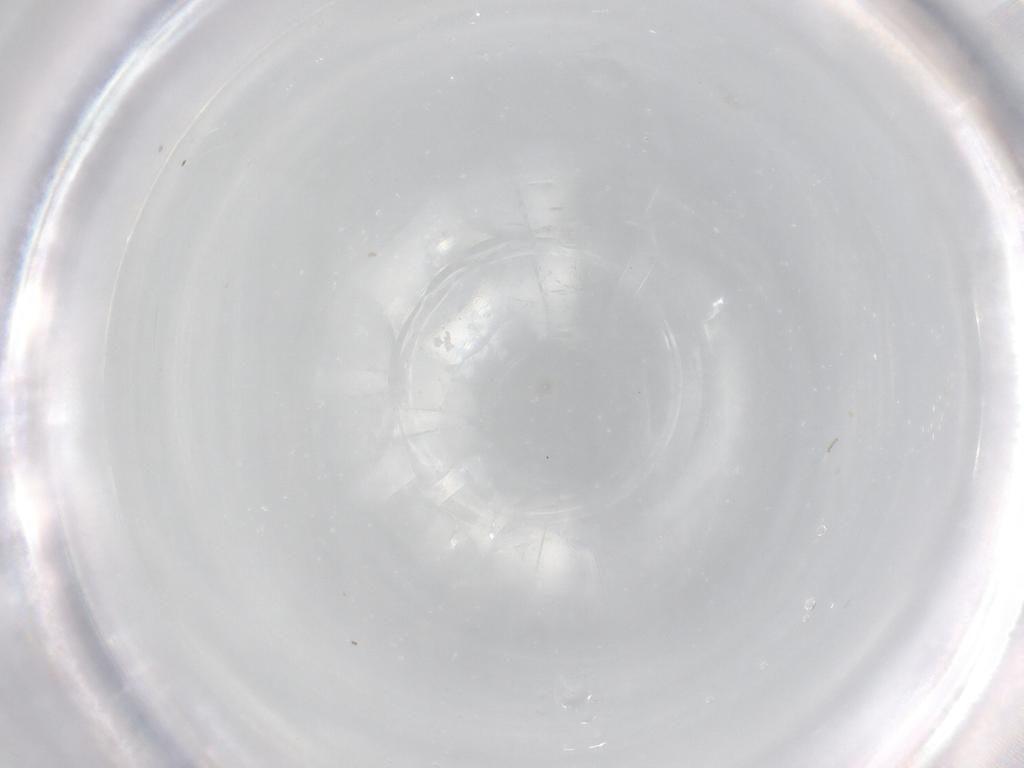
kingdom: Animalia
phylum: Arthropoda
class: Insecta
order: Hymenoptera
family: Mymaridae
